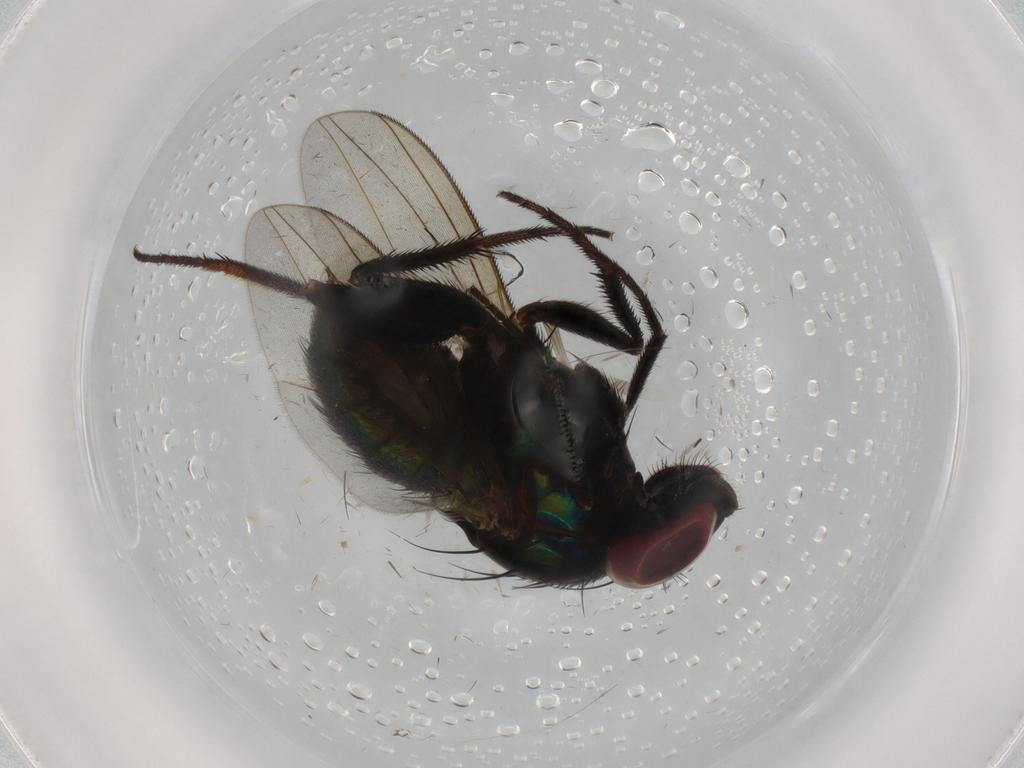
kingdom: Animalia
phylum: Arthropoda
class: Insecta
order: Diptera
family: Dolichopodidae
